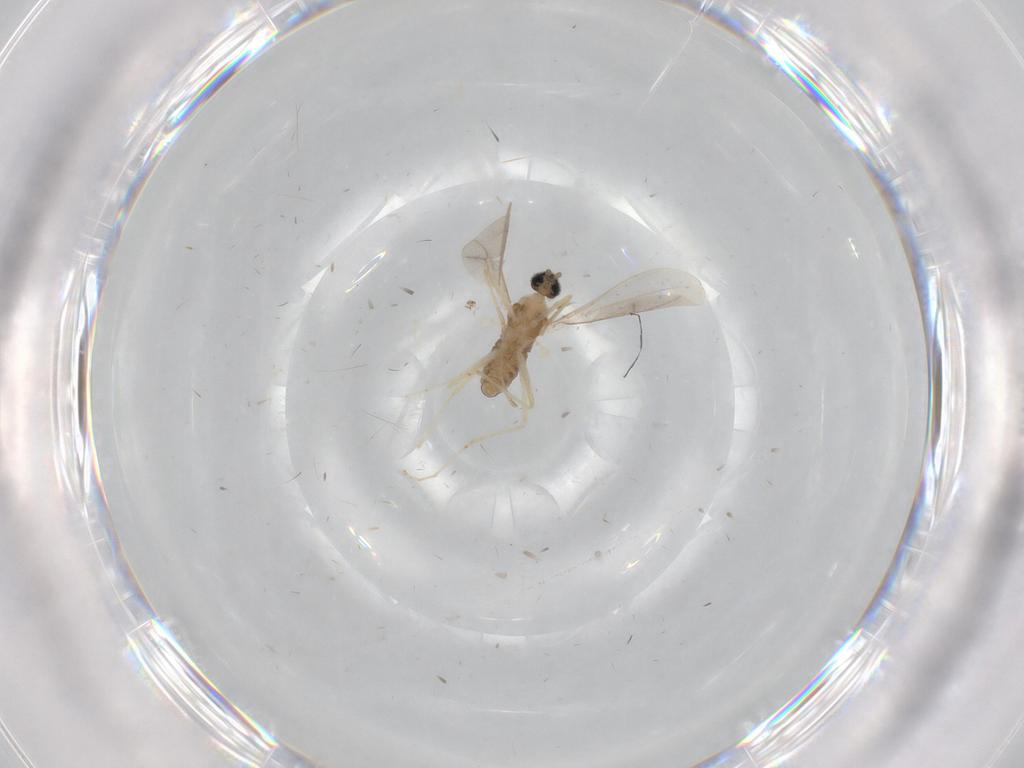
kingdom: Animalia
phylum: Arthropoda
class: Insecta
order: Diptera
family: Cecidomyiidae
